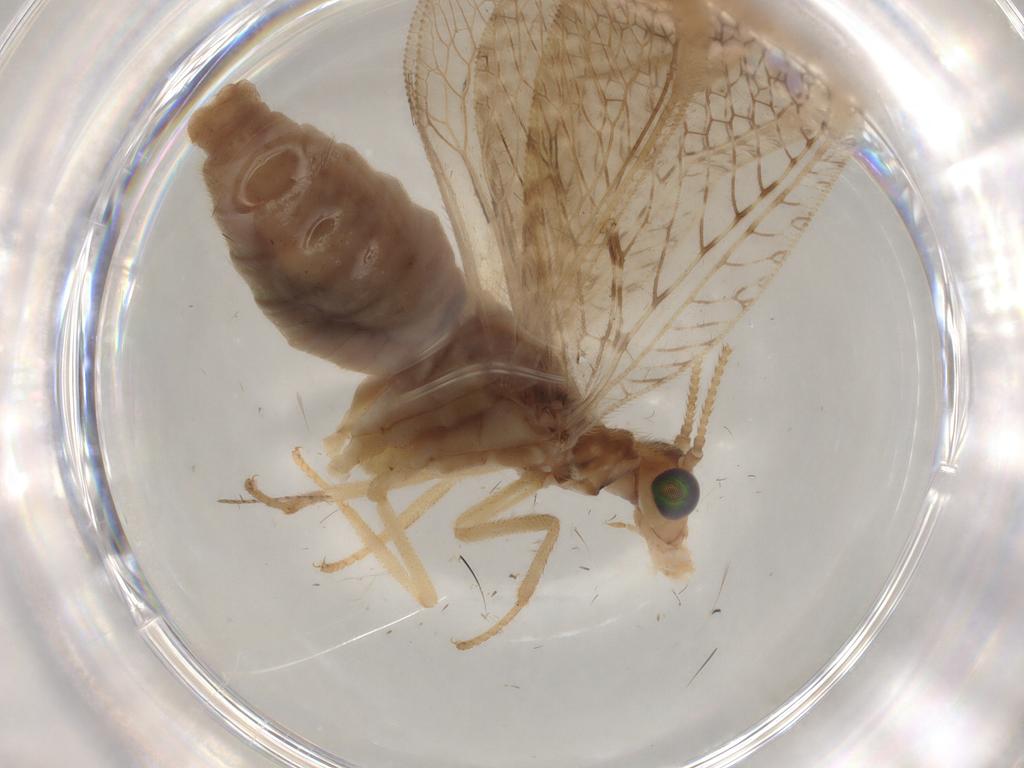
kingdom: Animalia
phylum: Arthropoda
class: Insecta
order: Neuroptera
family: Hemerobiidae
